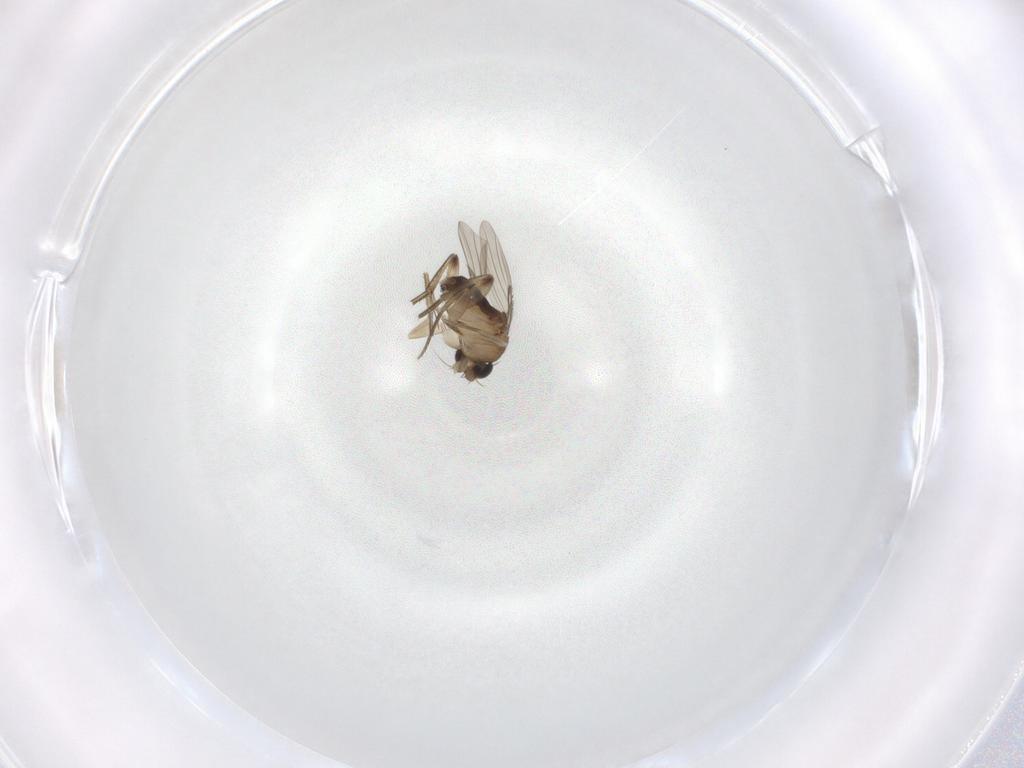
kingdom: Animalia
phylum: Arthropoda
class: Insecta
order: Diptera
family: Phoridae
